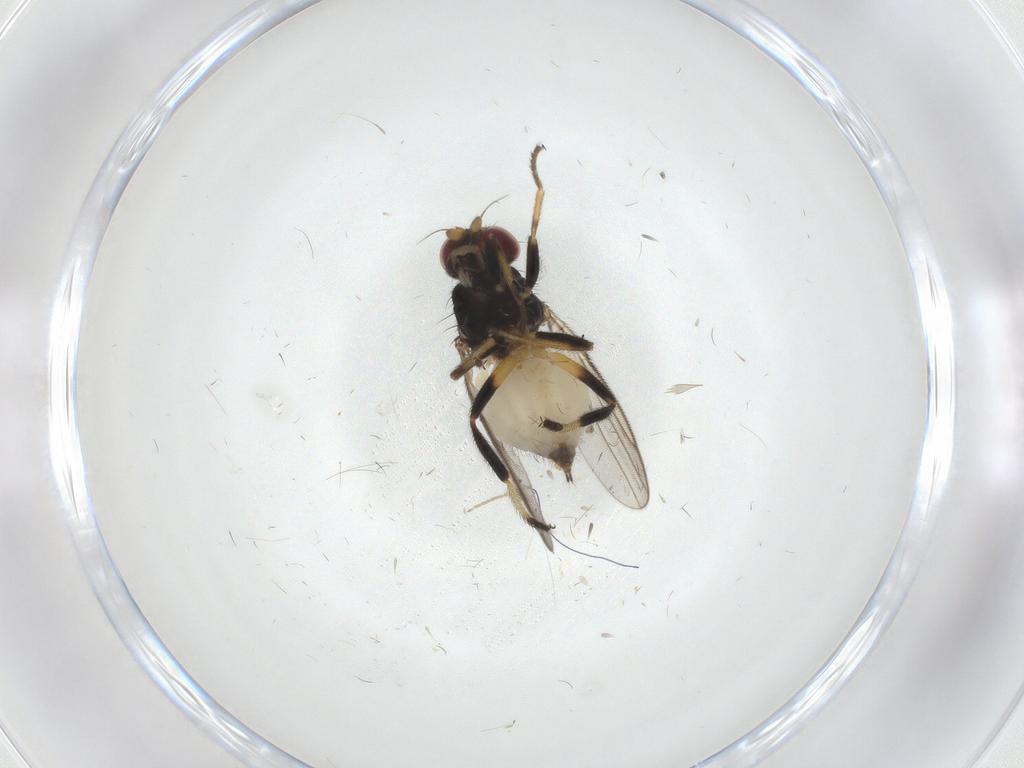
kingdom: Animalia
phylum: Arthropoda
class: Insecta
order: Diptera
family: Chloropidae
